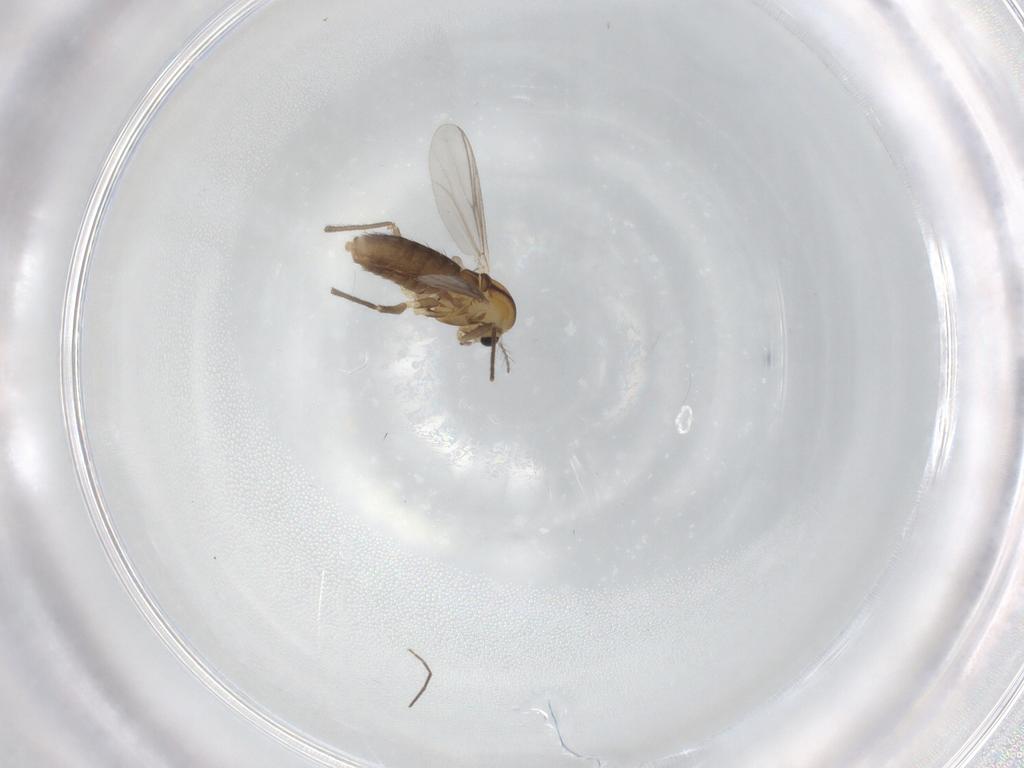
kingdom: Animalia
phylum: Arthropoda
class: Insecta
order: Diptera
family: Chironomidae
